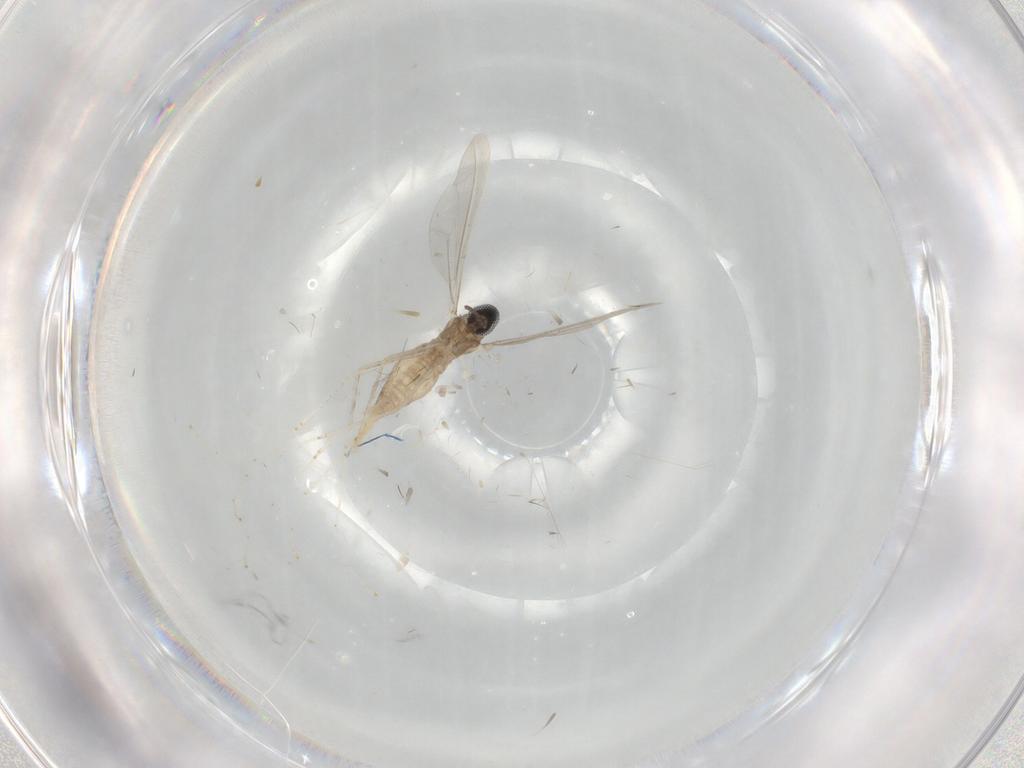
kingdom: Animalia
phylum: Arthropoda
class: Insecta
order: Diptera
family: Cecidomyiidae
